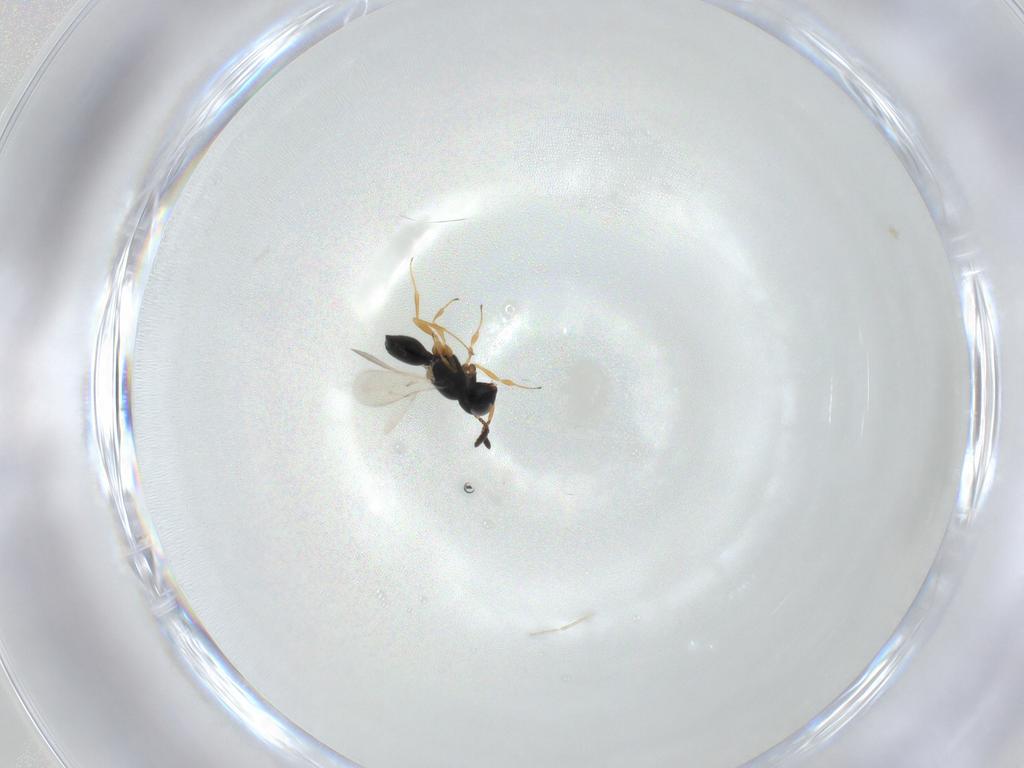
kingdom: Animalia
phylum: Arthropoda
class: Insecta
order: Hymenoptera
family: Scelionidae
